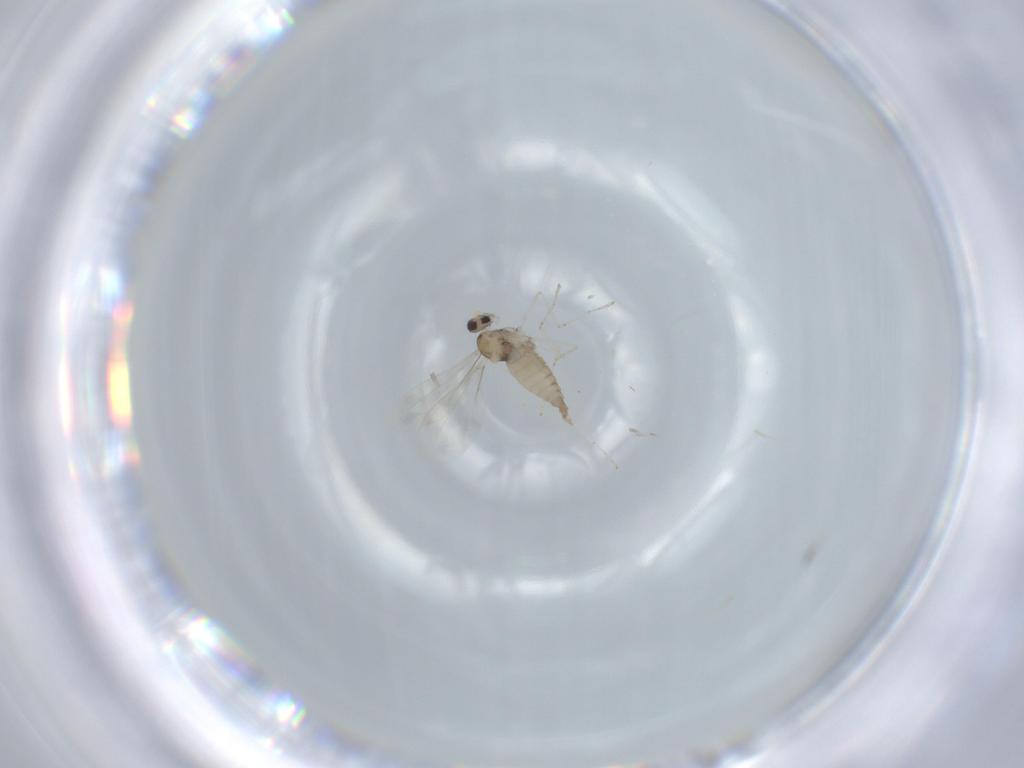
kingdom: Animalia
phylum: Arthropoda
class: Insecta
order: Diptera
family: Cecidomyiidae
